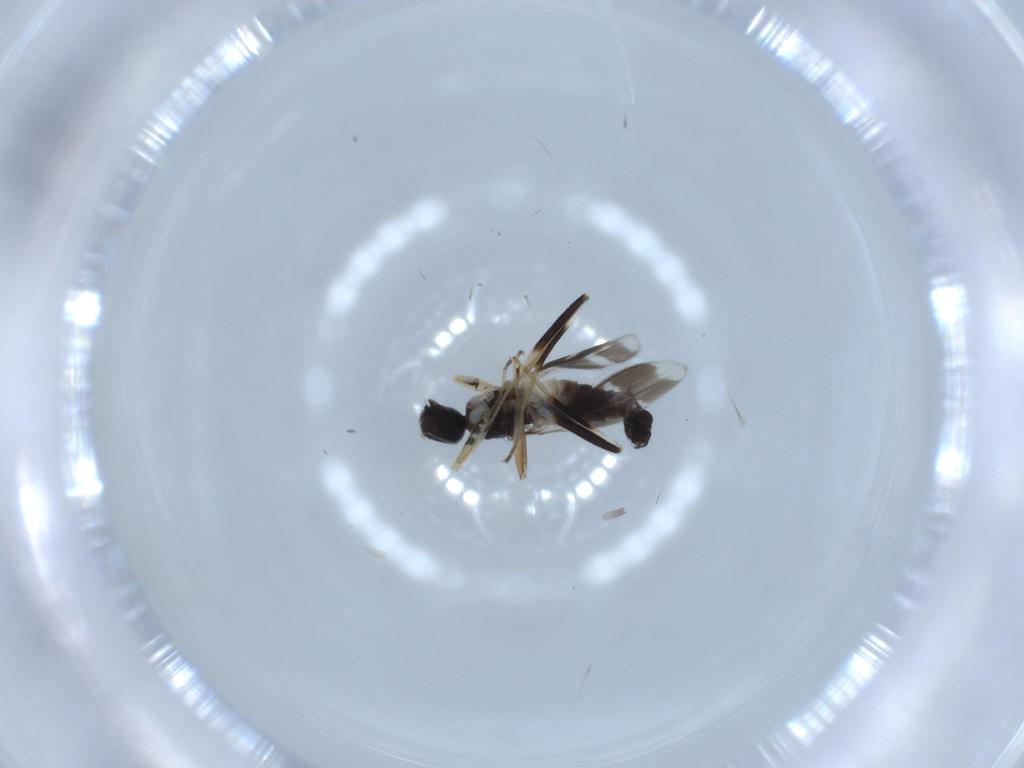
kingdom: Animalia
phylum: Arthropoda
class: Insecta
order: Diptera
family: Hybotidae
